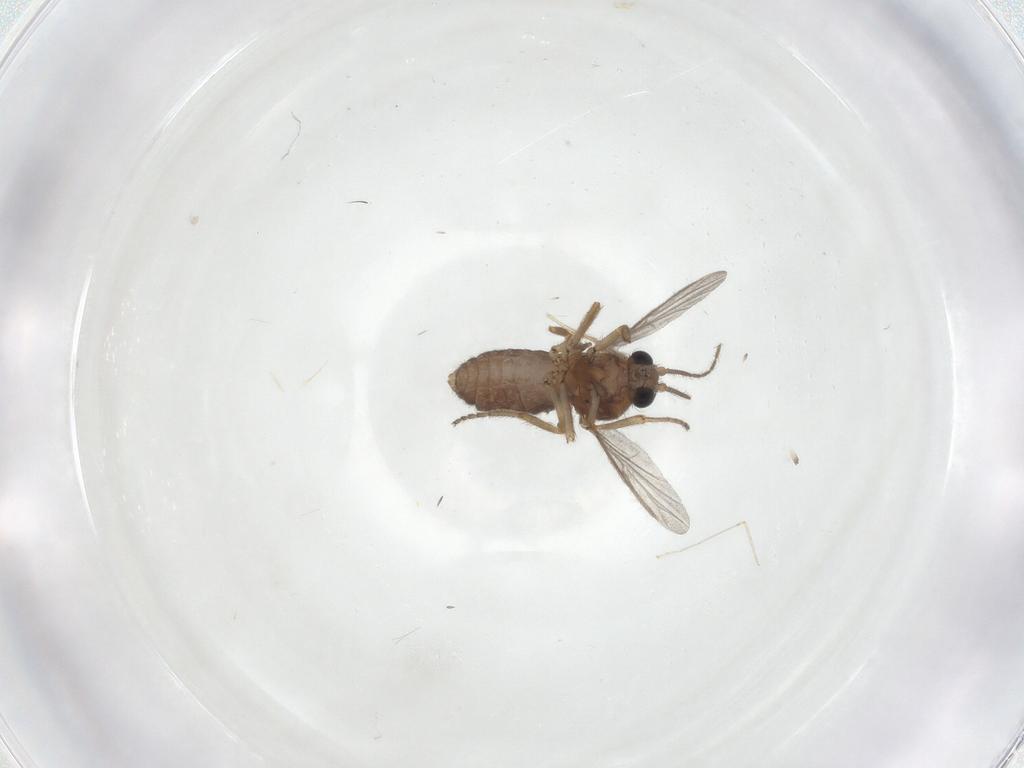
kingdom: Animalia
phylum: Arthropoda
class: Insecta
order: Diptera
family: Ceratopogonidae
